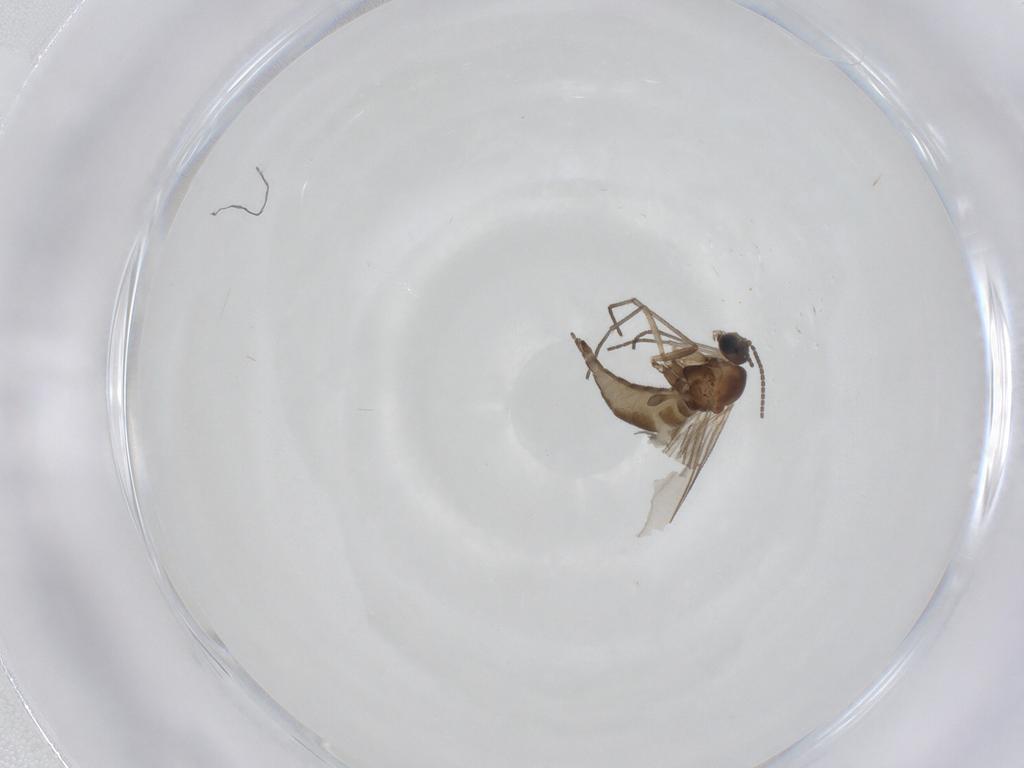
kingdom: Animalia
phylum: Arthropoda
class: Insecta
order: Diptera
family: Sciaridae
